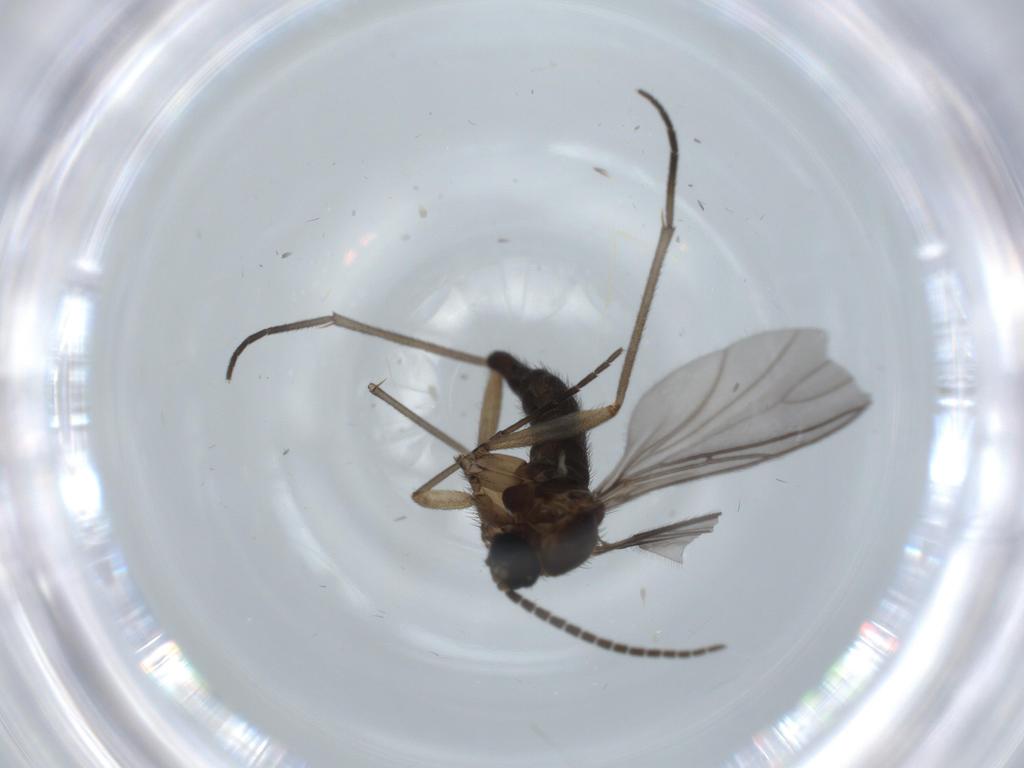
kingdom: Animalia
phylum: Arthropoda
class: Insecta
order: Diptera
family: Sciaridae
